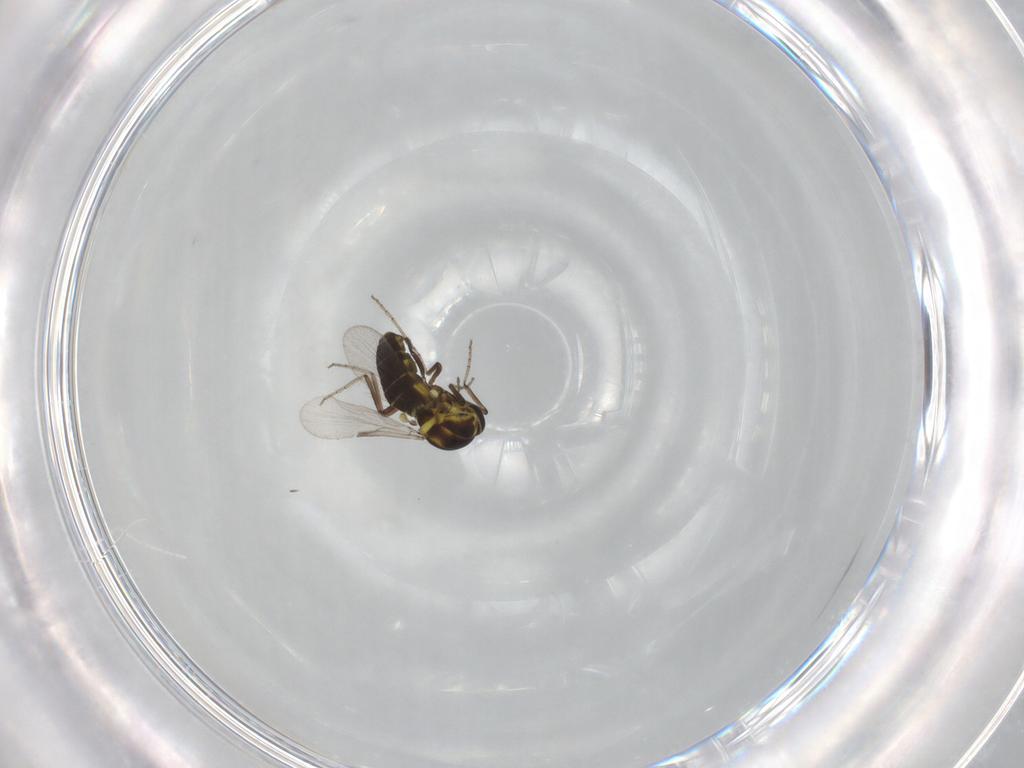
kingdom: Animalia
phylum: Arthropoda
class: Insecta
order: Diptera
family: Ceratopogonidae
